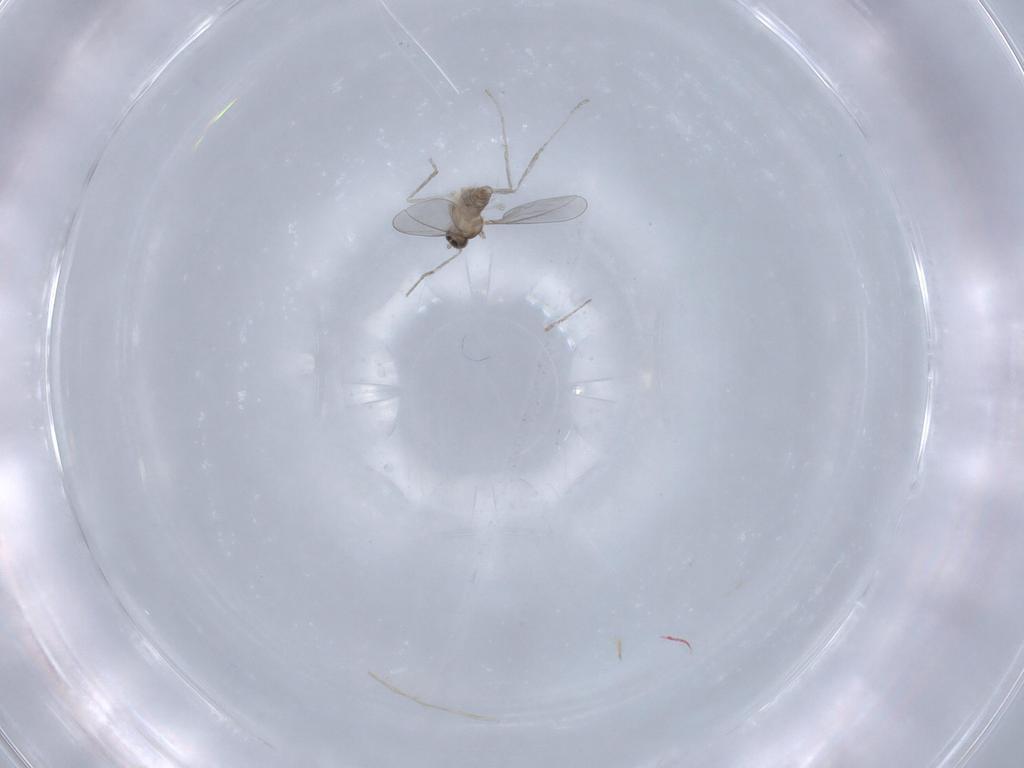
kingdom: Animalia
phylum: Arthropoda
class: Insecta
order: Diptera
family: Cecidomyiidae
